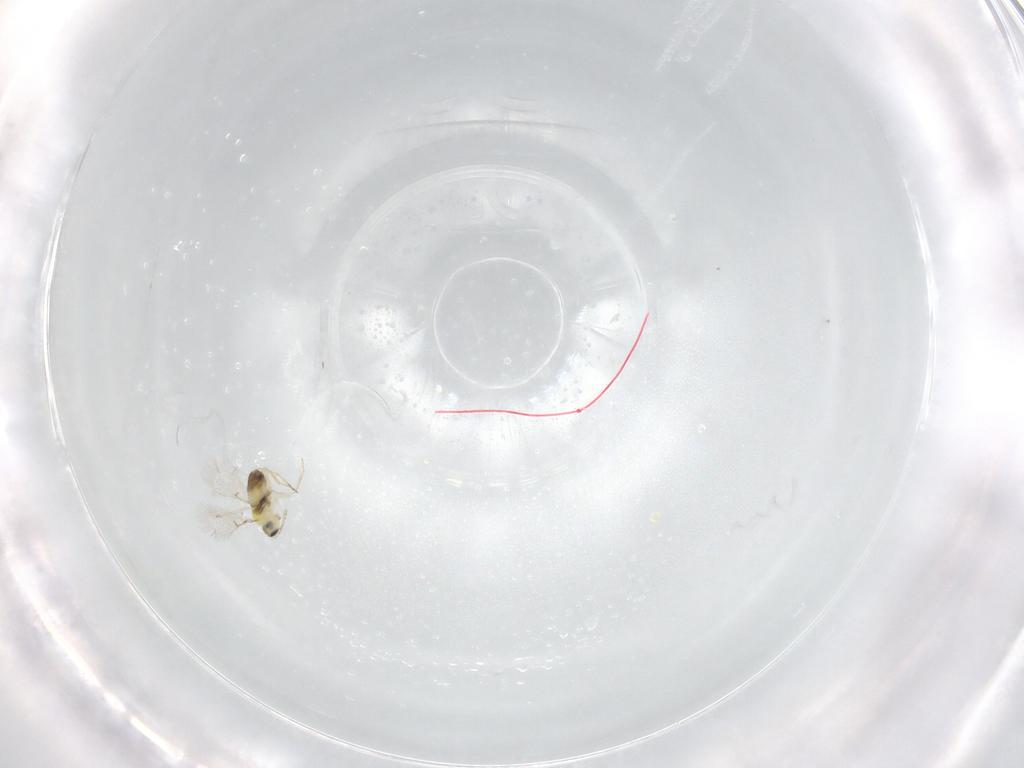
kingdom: Animalia
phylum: Arthropoda
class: Insecta
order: Hymenoptera
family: Trichogrammatidae
